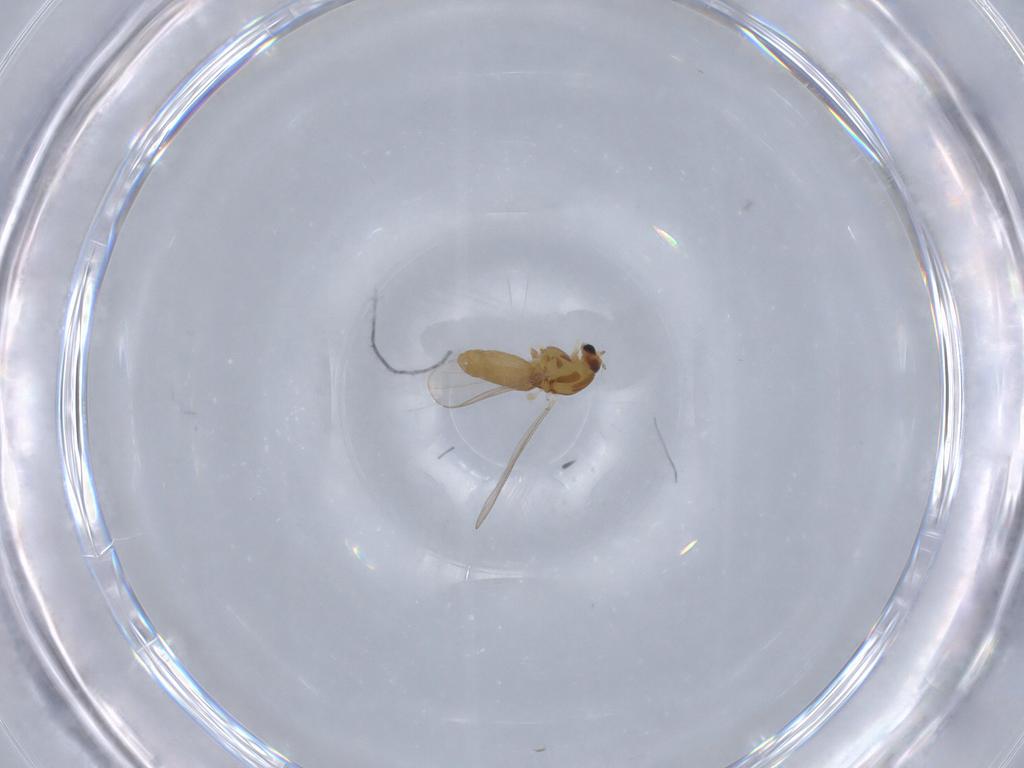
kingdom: Animalia
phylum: Arthropoda
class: Insecta
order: Diptera
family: Chironomidae
